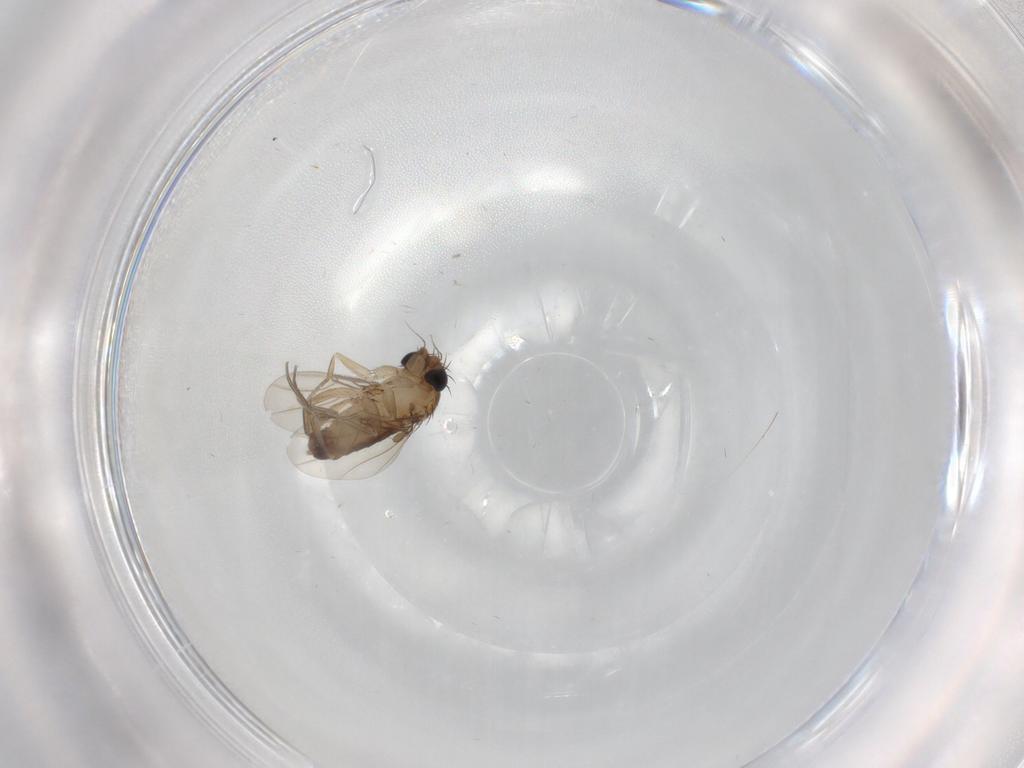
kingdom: Animalia
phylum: Arthropoda
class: Insecta
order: Diptera
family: Phoridae
